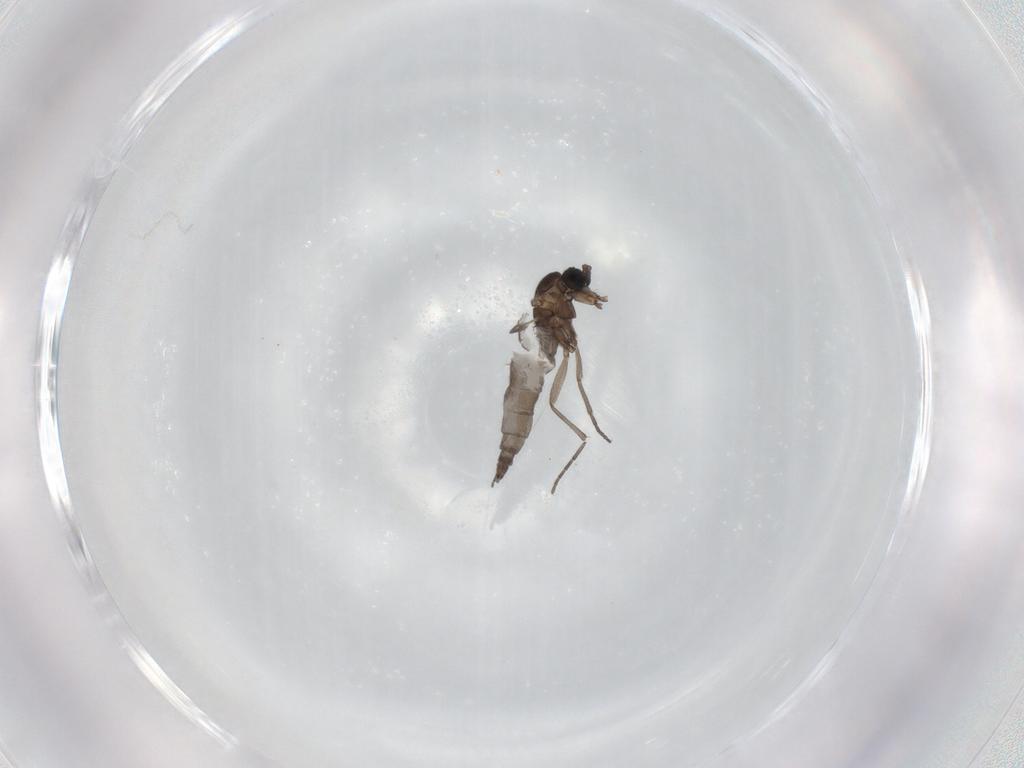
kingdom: Animalia
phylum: Arthropoda
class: Insecta
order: Diptera
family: Sciaridae
